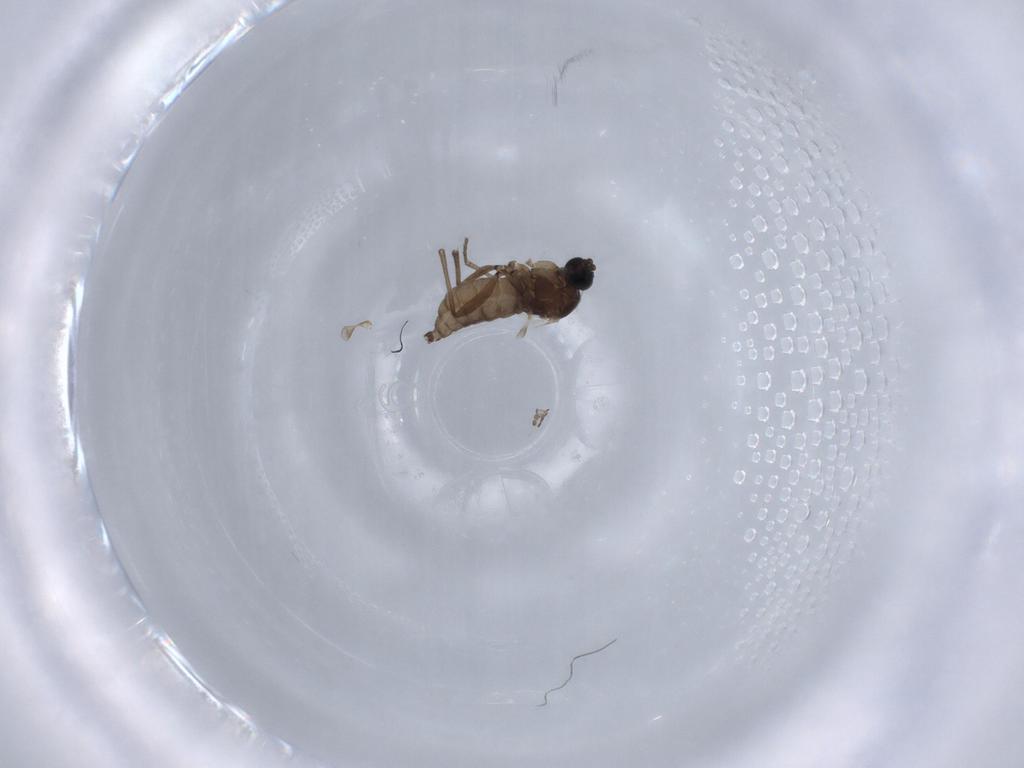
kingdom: Animalia
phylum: Arthropoda
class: Insecta
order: Diptera
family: Chironomidae
